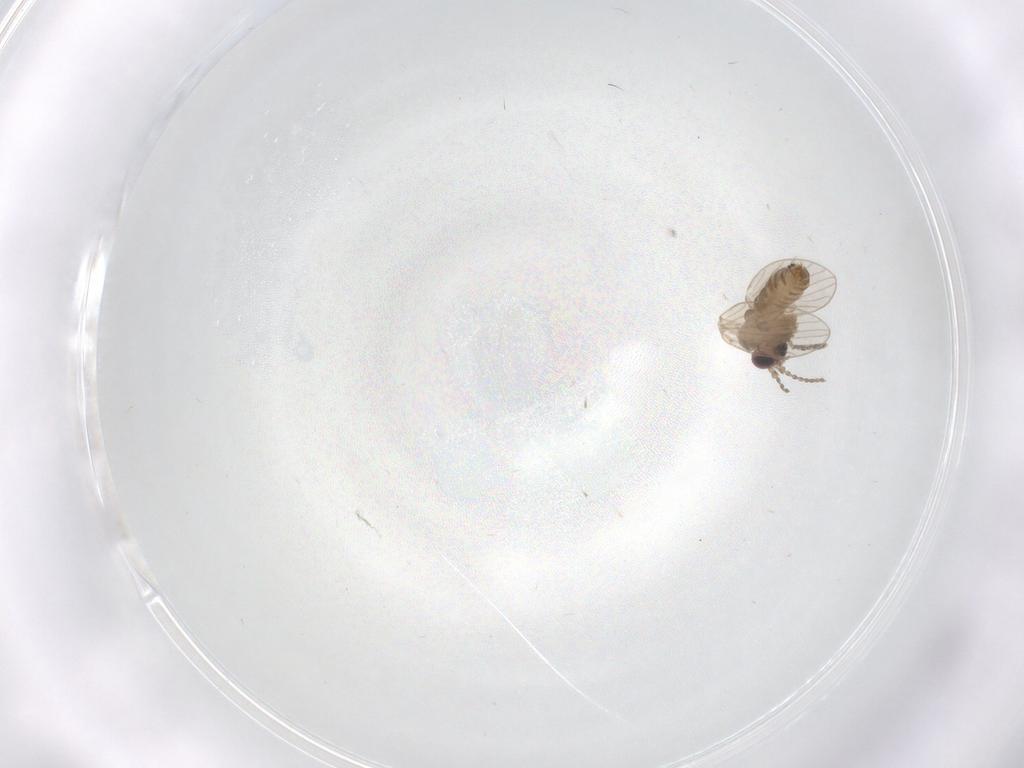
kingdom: Animalia
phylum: Arthropoda
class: Insecta
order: Diptera
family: Psychodidae
